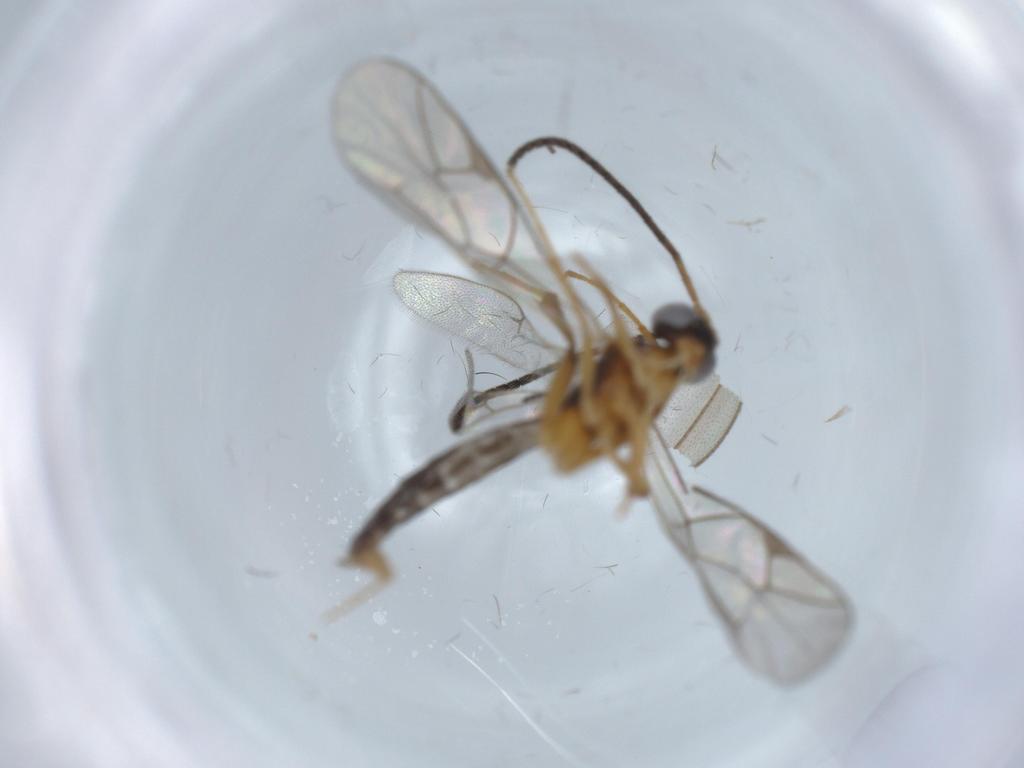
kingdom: Animalia
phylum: Arthropoda
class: Insecta
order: Hymenoptera
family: Ichneumonidae
